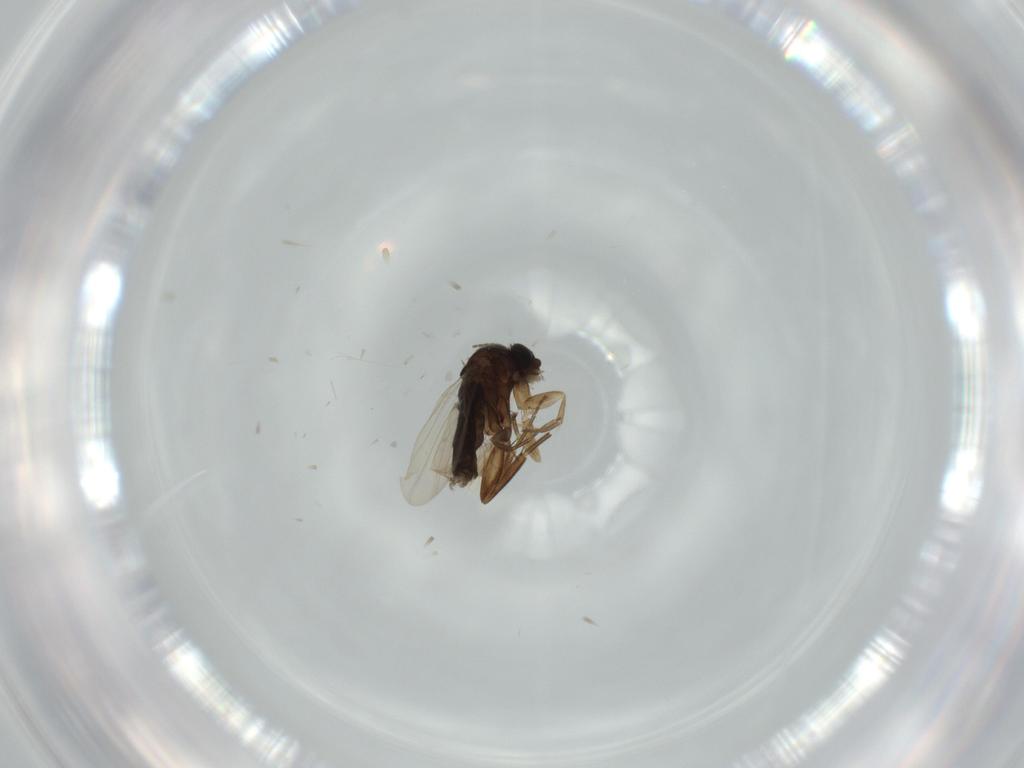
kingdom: Animalia
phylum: Arthropoda
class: Insecta
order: Diptera
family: Ceratopogonidae
